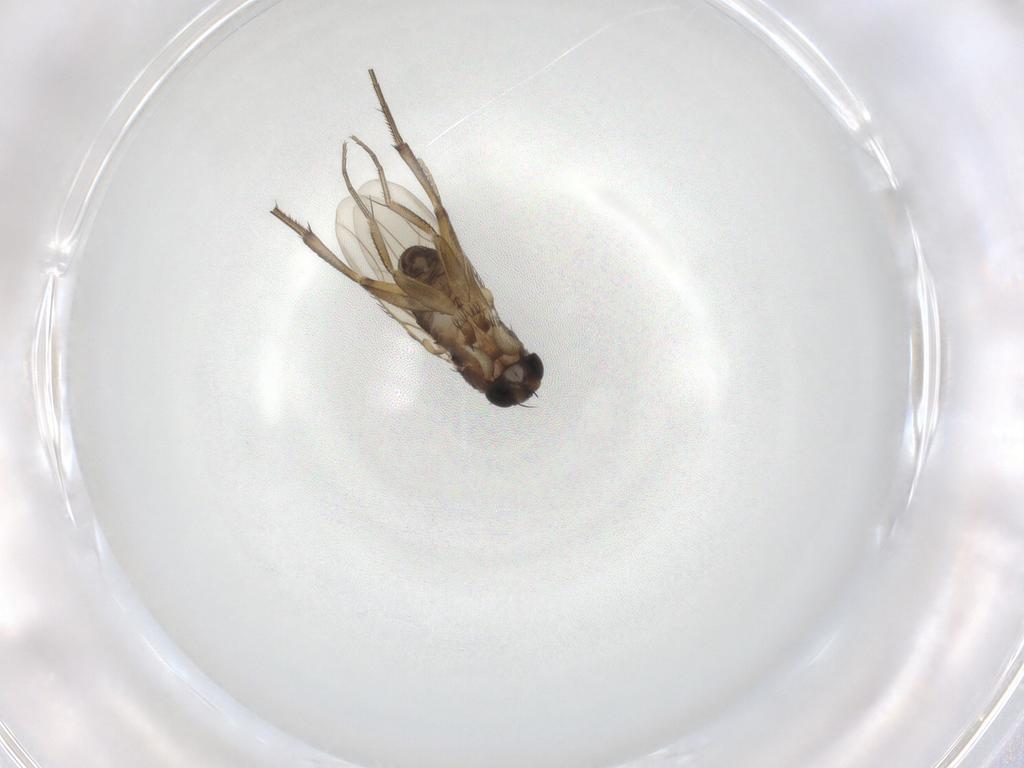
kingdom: Animalia
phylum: Arthropoda
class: Insecta
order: Diptera
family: Phoridae
